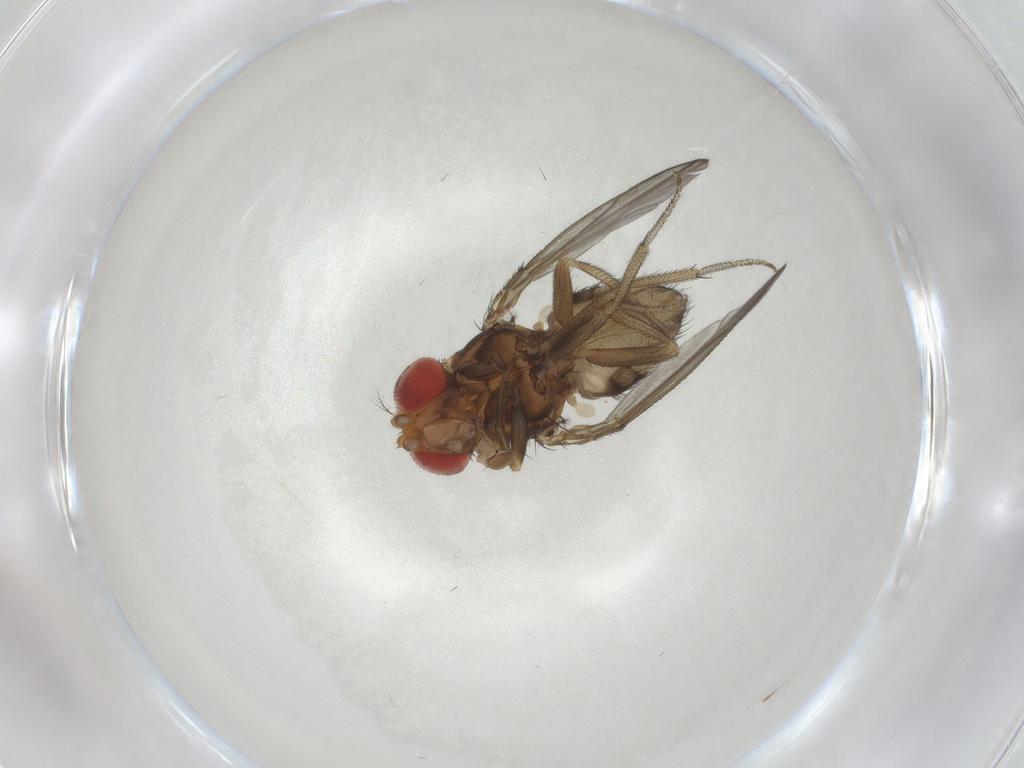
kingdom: Animalia
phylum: Arthropoda
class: Insecta
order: Diptera
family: Drosophilidae
